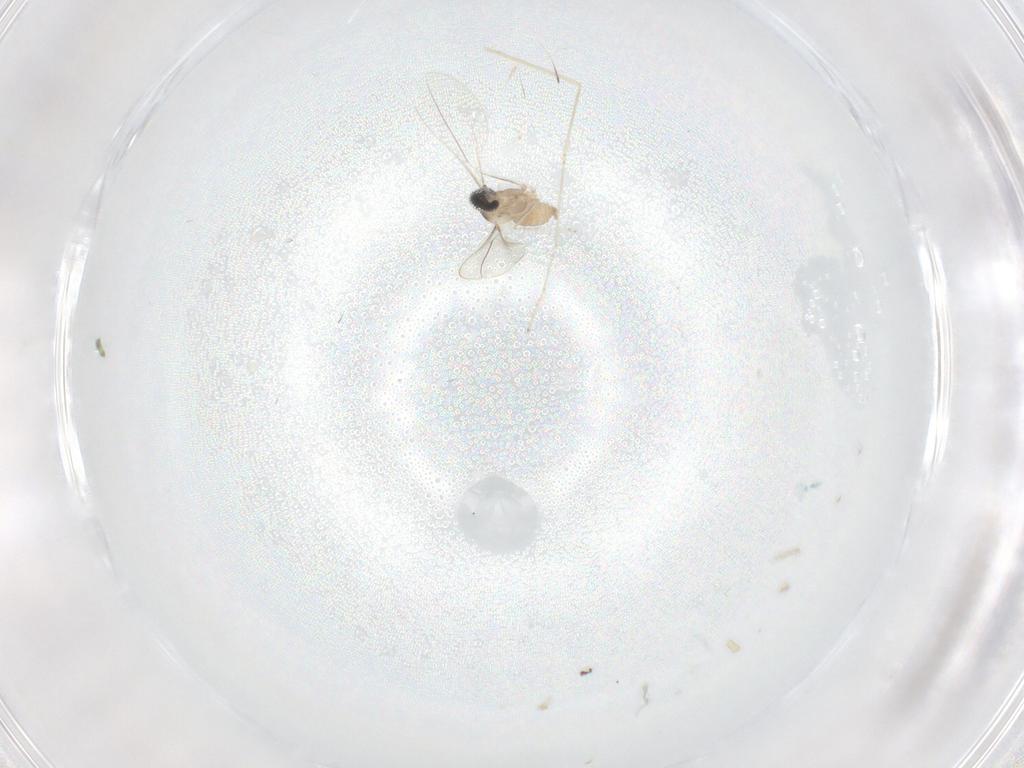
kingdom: Animalia
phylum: Arthropoda
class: Insecta
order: Diptera
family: Cecidomyiidae
